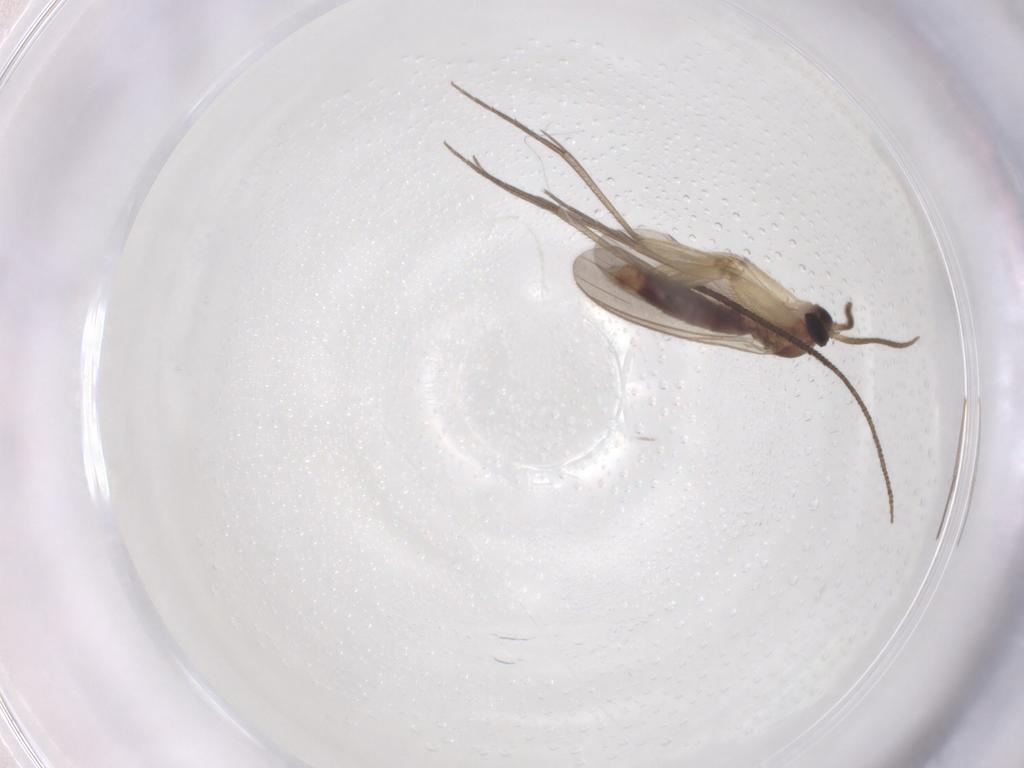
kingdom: Animalia
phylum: Arthropoda
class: Insecta
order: Diptera
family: Mycetophilidae
